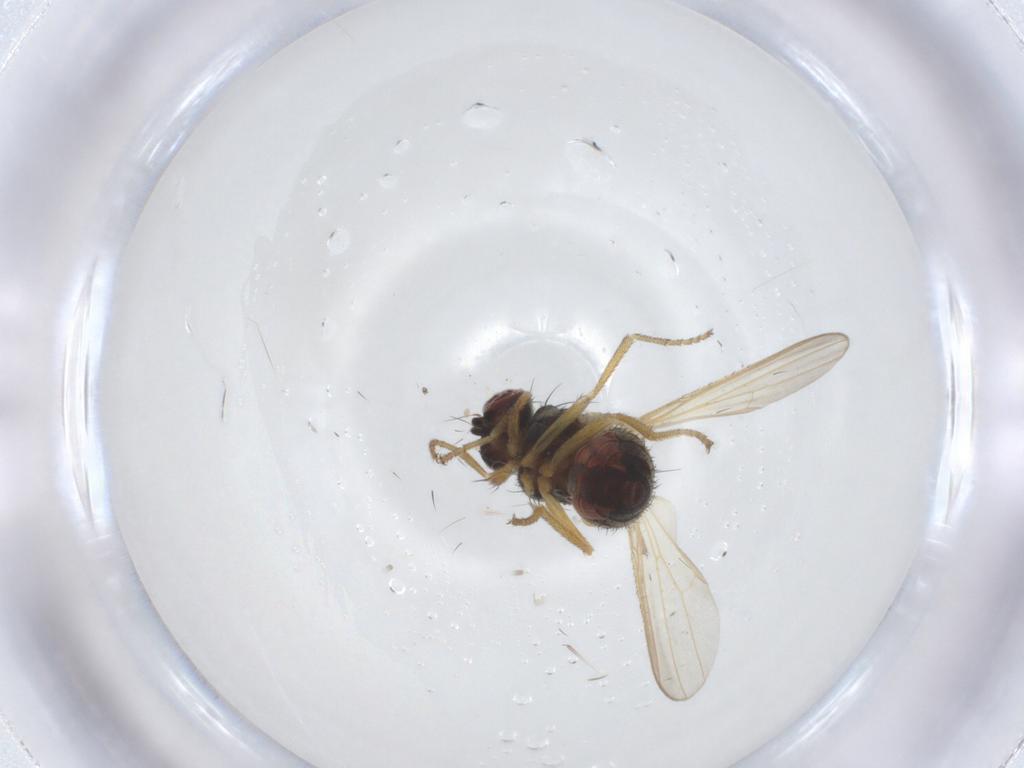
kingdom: Animalia
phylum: Arthropoda
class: Insecta
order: Diptera
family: Heleomyzidae
